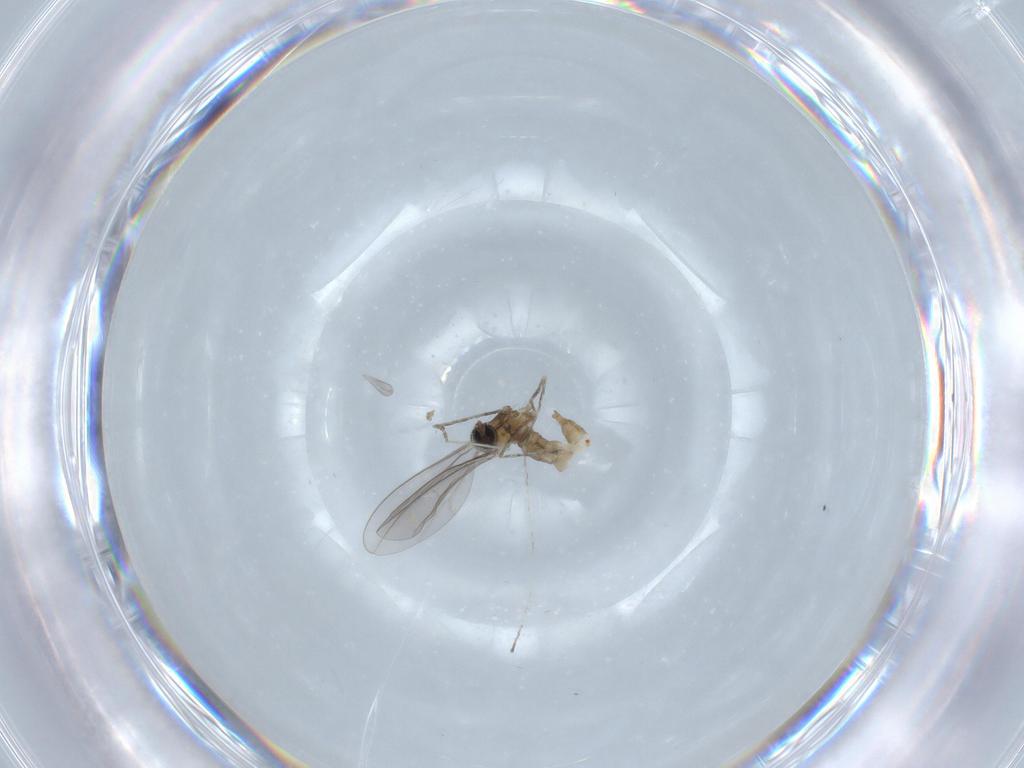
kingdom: Animalia
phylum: Arthropoda
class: Insecta
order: Diptera
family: Cecidomyiidae
